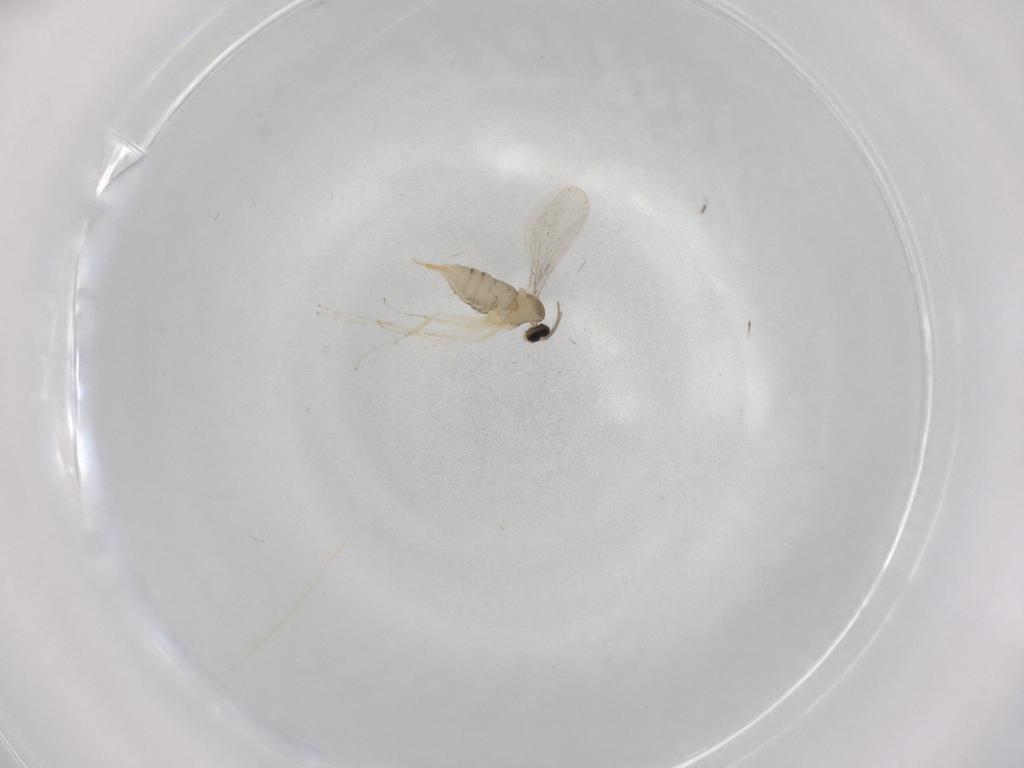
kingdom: Animalia
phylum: Arthropoda
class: Insecta
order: Diptera
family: Cecidomyiidae
